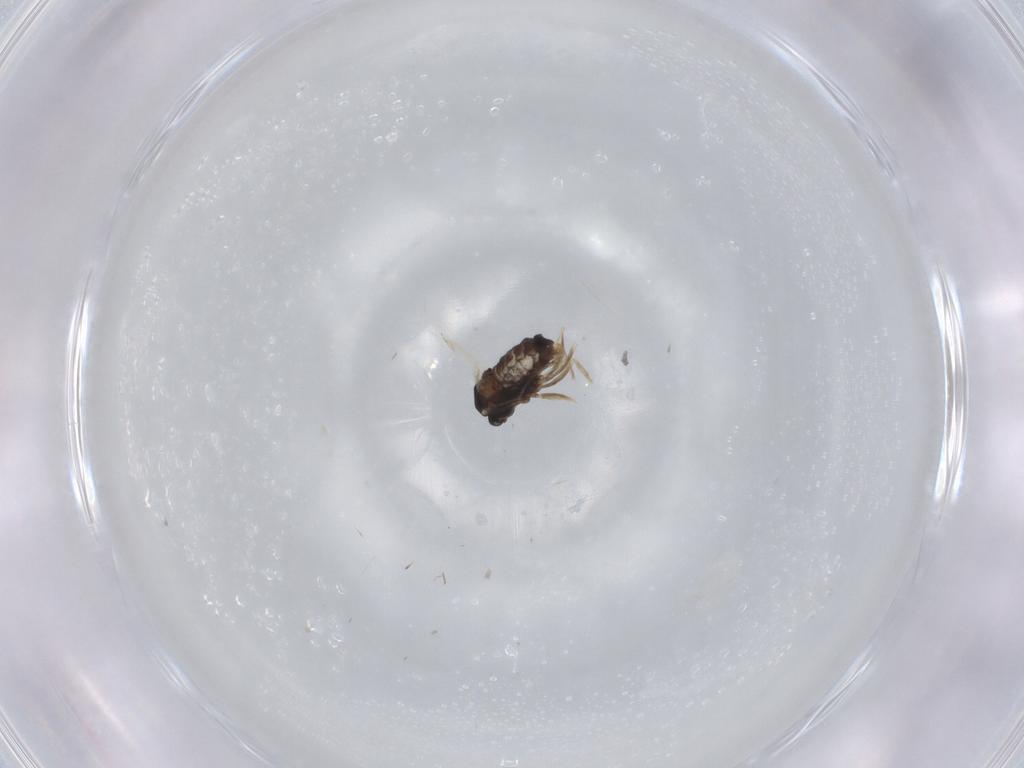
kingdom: Animalia
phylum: Arthropoda
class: Insecta
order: Diptera
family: Cecidomyiidae
